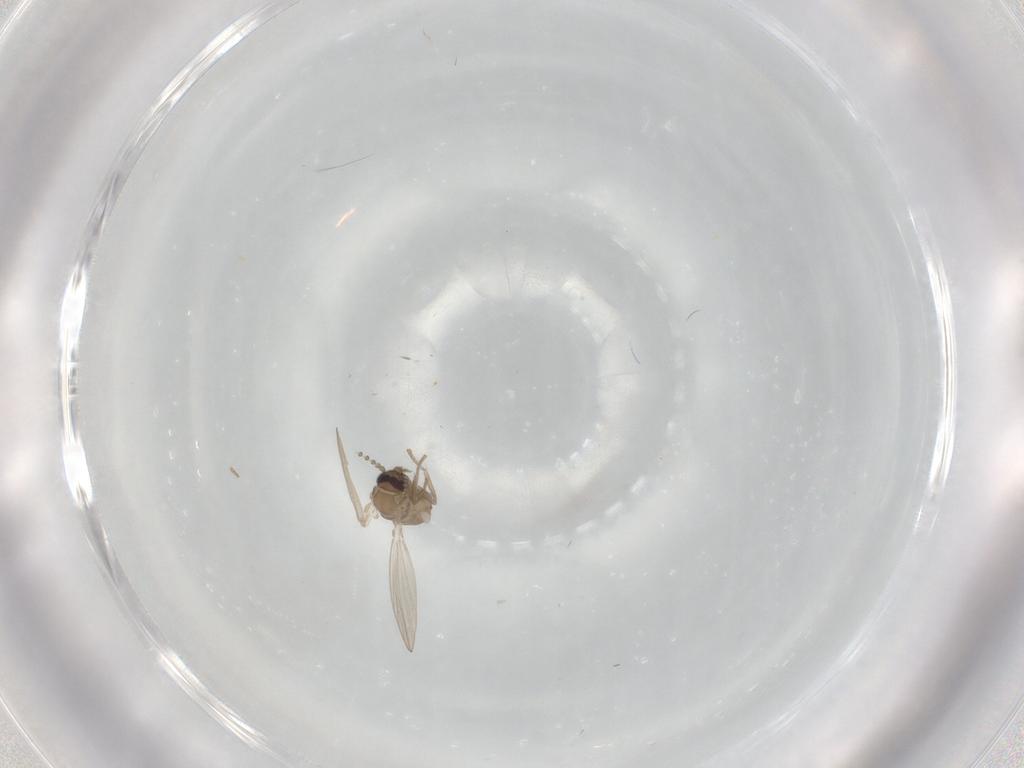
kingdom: Animalia
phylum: Arthropoda
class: Insecta
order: Diptera
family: Psychodidae
